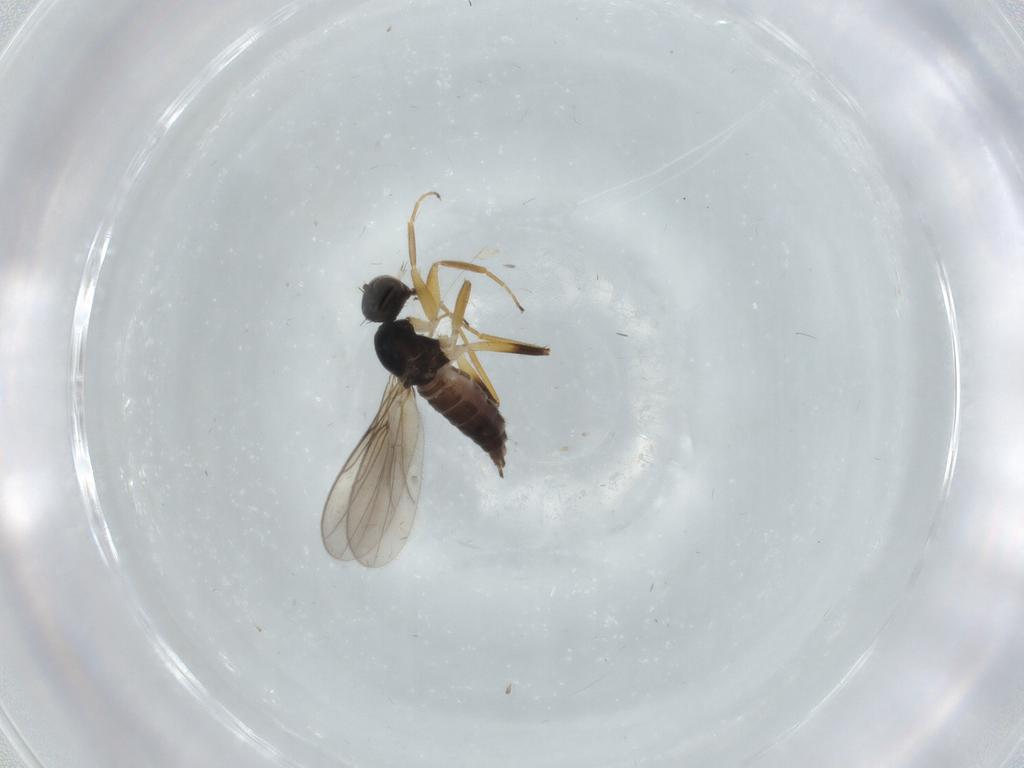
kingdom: Animalia
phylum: Arthropoda
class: Insecta
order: Diptera
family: Hybotidae
